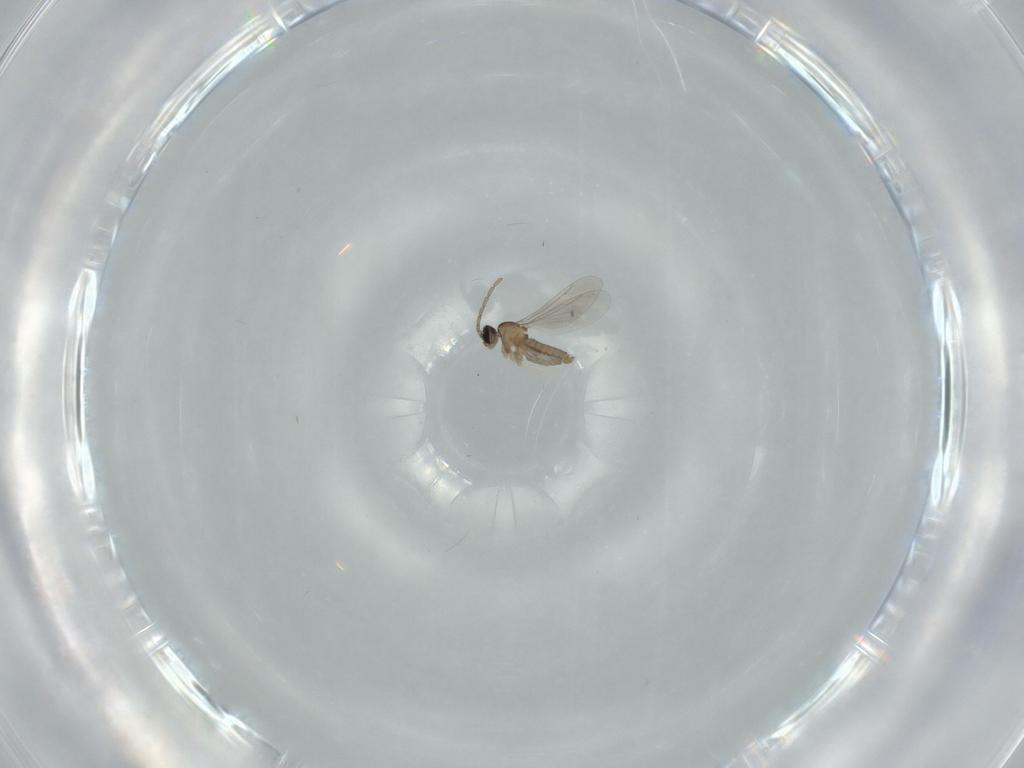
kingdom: Animalia
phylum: Arthropoda
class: Insecta
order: Diptera
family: Cecidomyiidae
